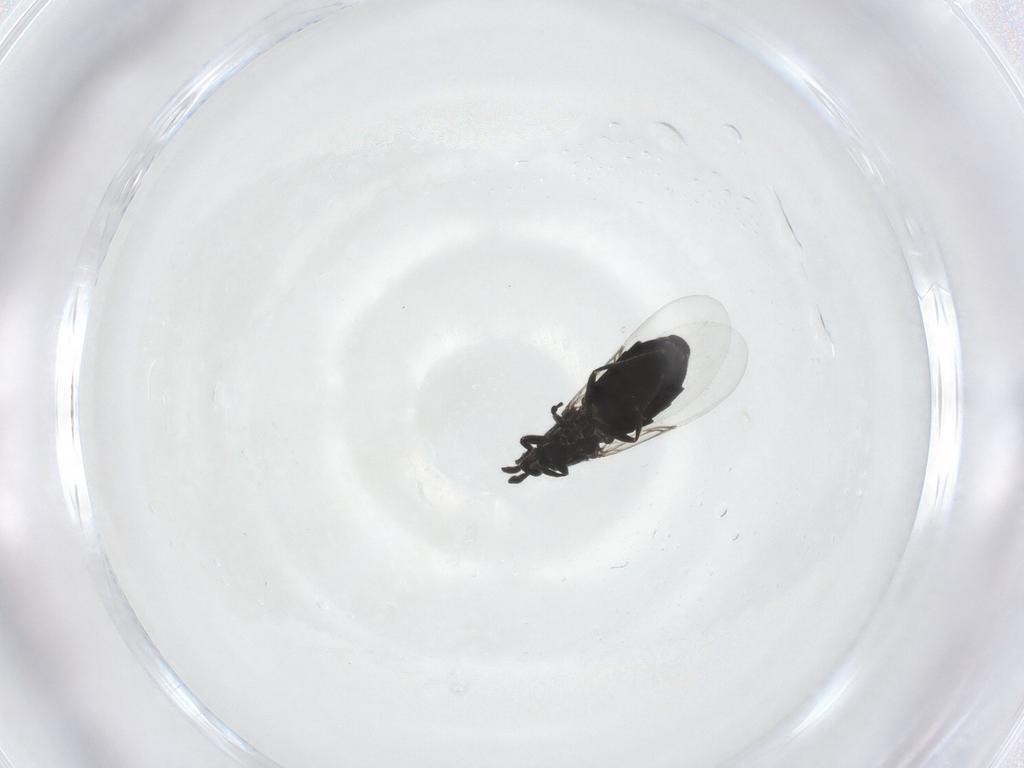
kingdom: Animalia
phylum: Arthropoda
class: Insecta
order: Diptera
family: Scatopsidae
